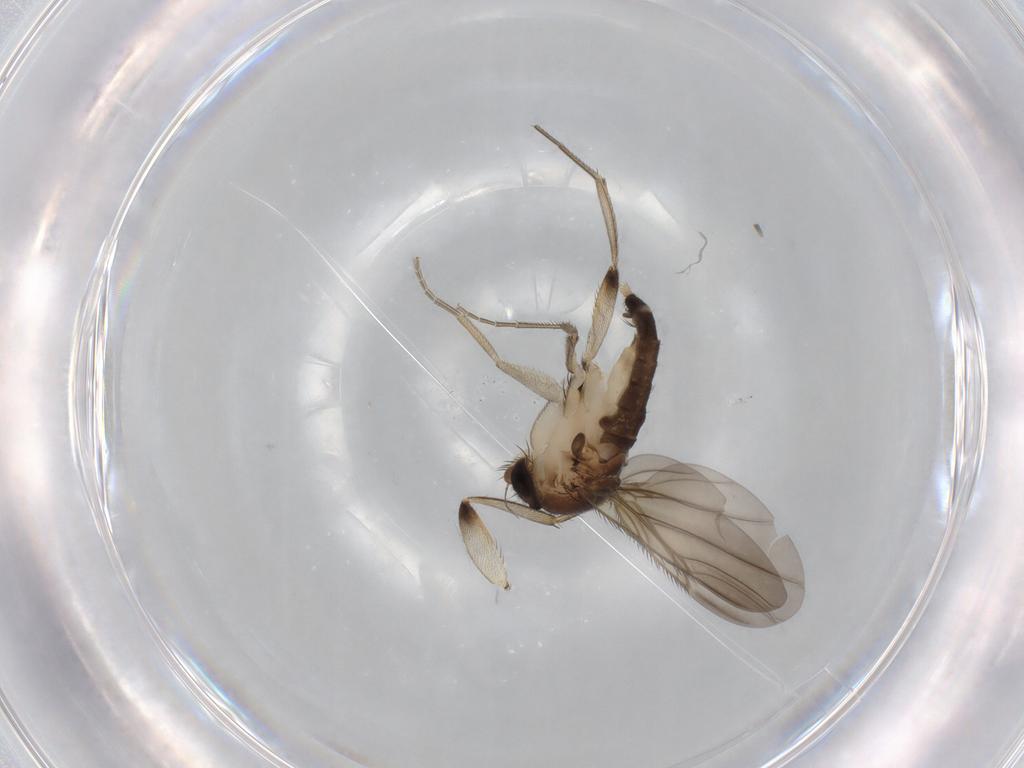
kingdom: Animalia
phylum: Arthropoda
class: Insecta
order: Diptera
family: Phoridae
